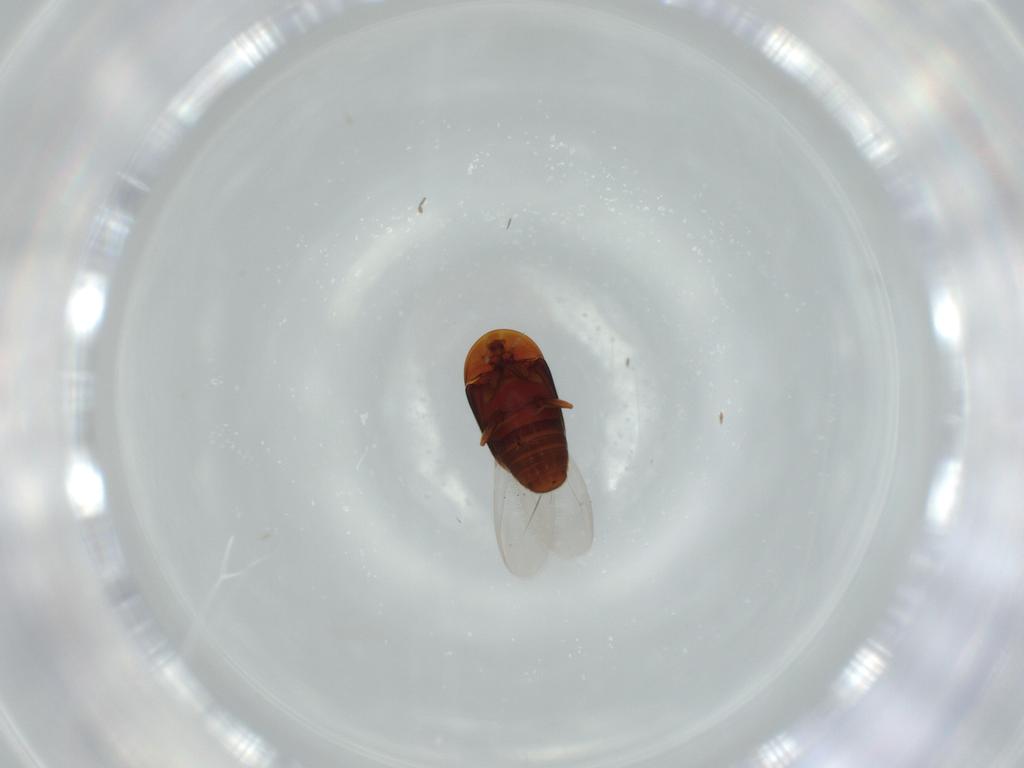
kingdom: Animalia
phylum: Arthropoda
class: Insecta
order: Coleoptera
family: Corylophidae
